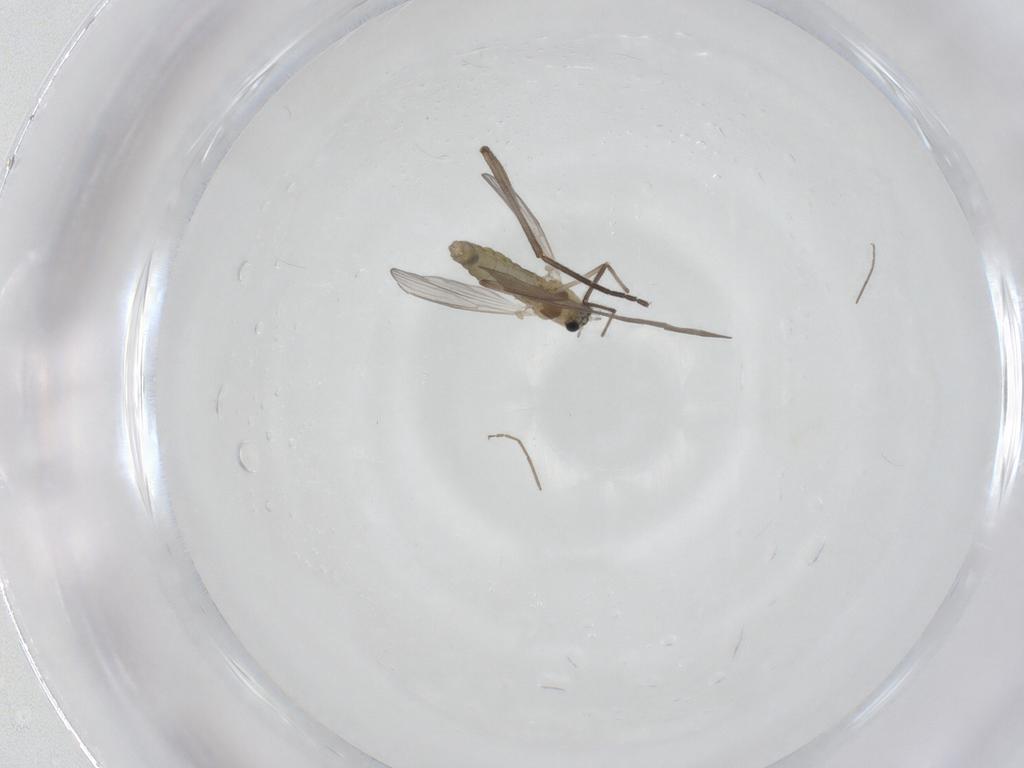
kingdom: Animalia
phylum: Arthropoda
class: Insecta
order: Diptera
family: Chironomidae
